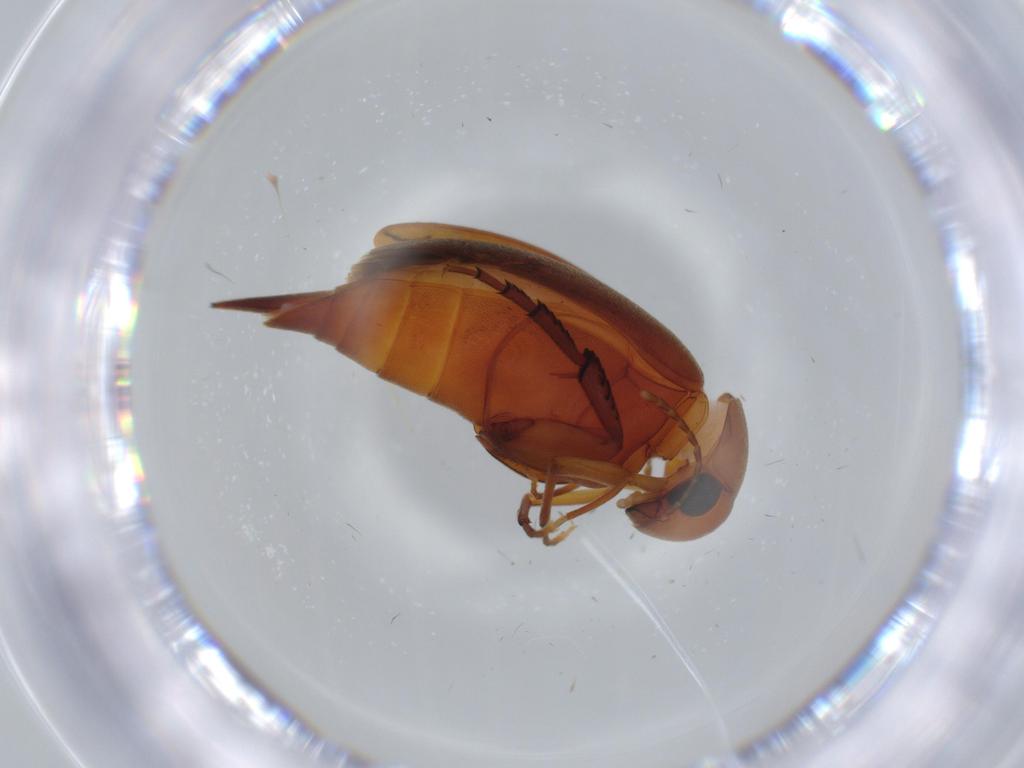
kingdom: Animalia
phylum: Arthropoda
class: Insecta
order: Coleoptera
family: Mordellidae
